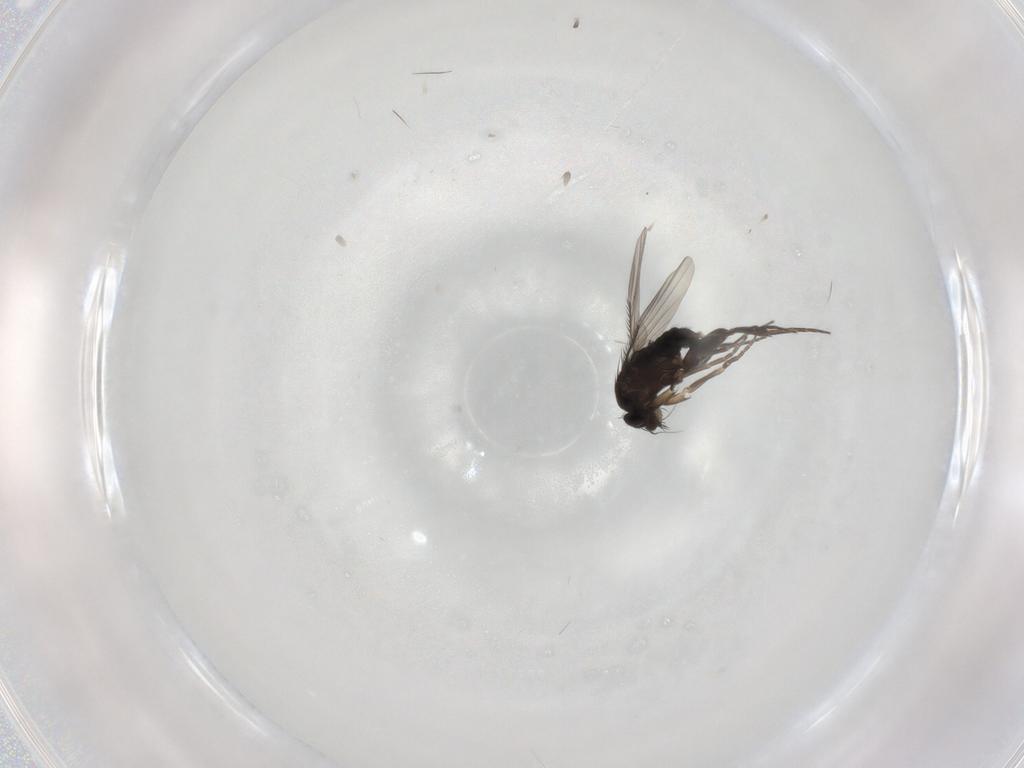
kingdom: Animalia
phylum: Arthropoda
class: Insecta
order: Diptera
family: Phoridae
